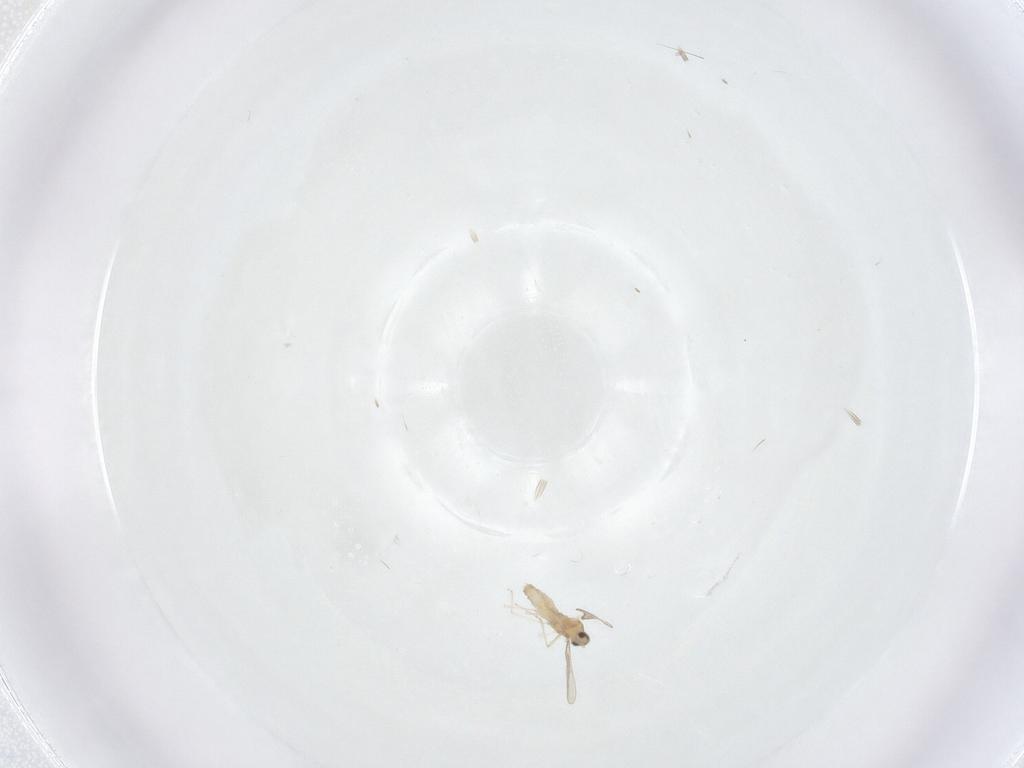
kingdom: Animalia
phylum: Arthropoda
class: Insecta
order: Diptera
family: Cecidomyiidae
